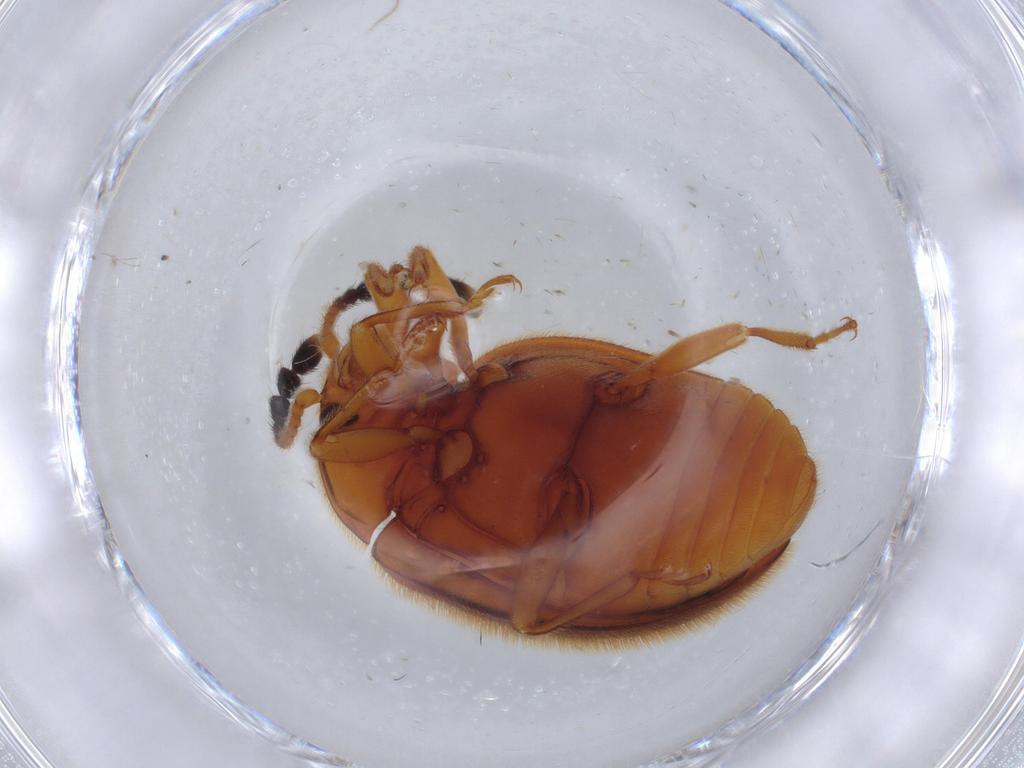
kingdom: Animalia
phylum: Arthropoda
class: Insecta
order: Coleoptera
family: Endomychidae
